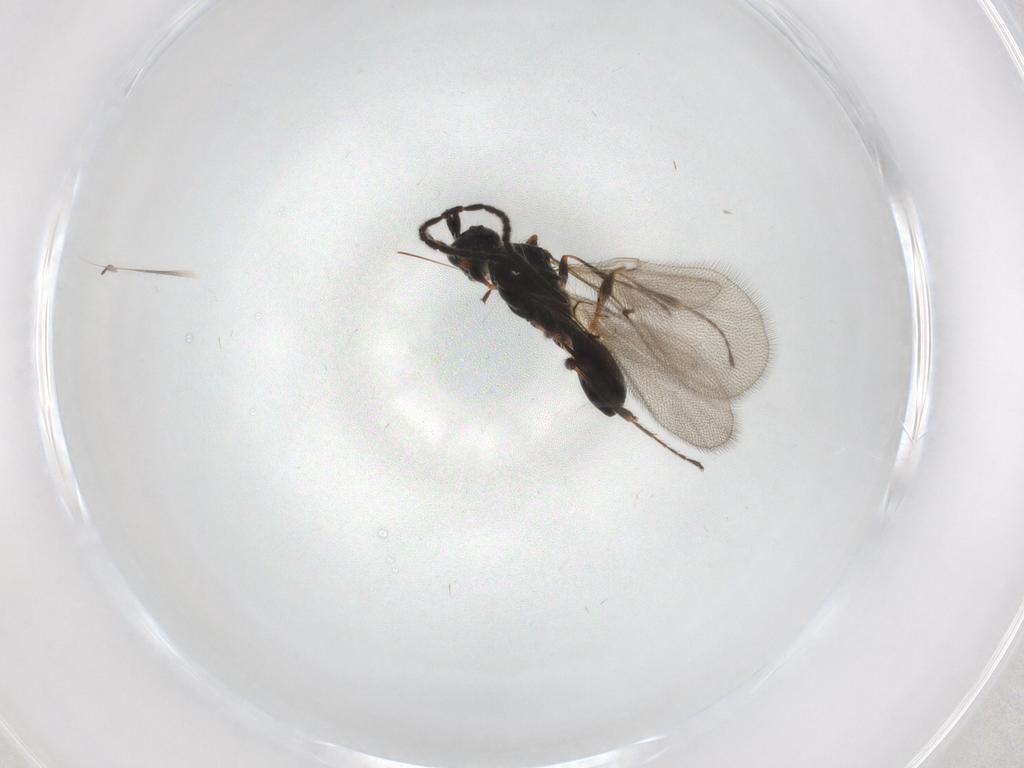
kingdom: Animalia
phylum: Arthropoda
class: Insecta
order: Hymenoptera
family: Diapriidae
